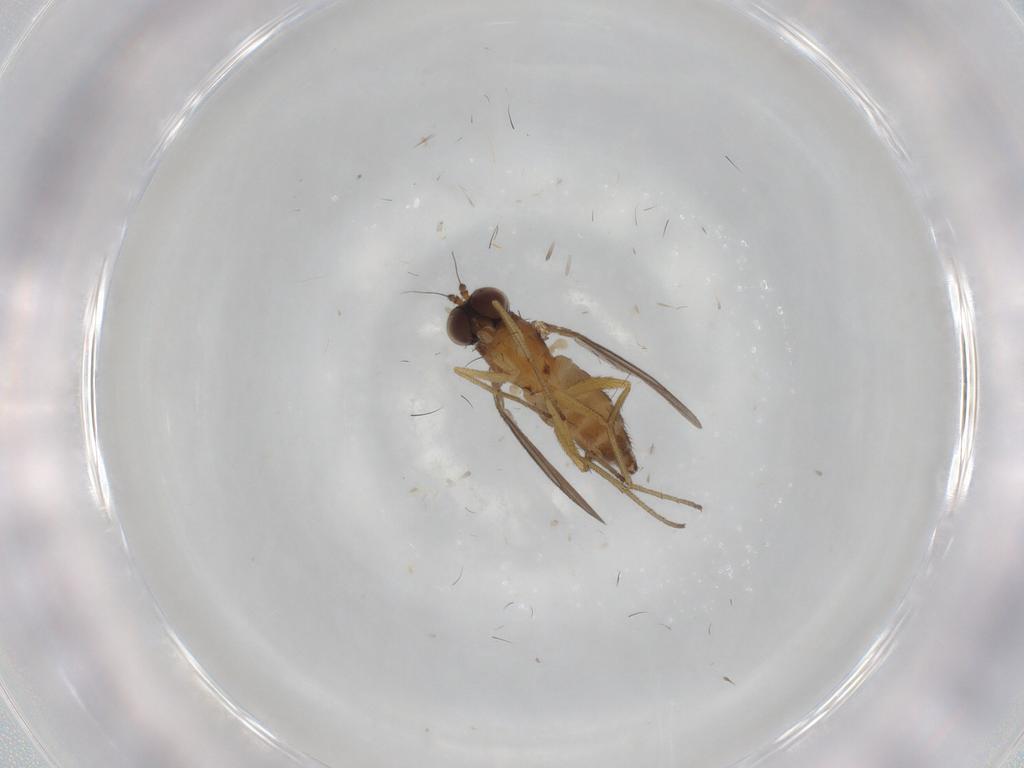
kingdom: Animalia
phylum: Arthropoda
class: Insecta
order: Diptera
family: Dolichopodidae
